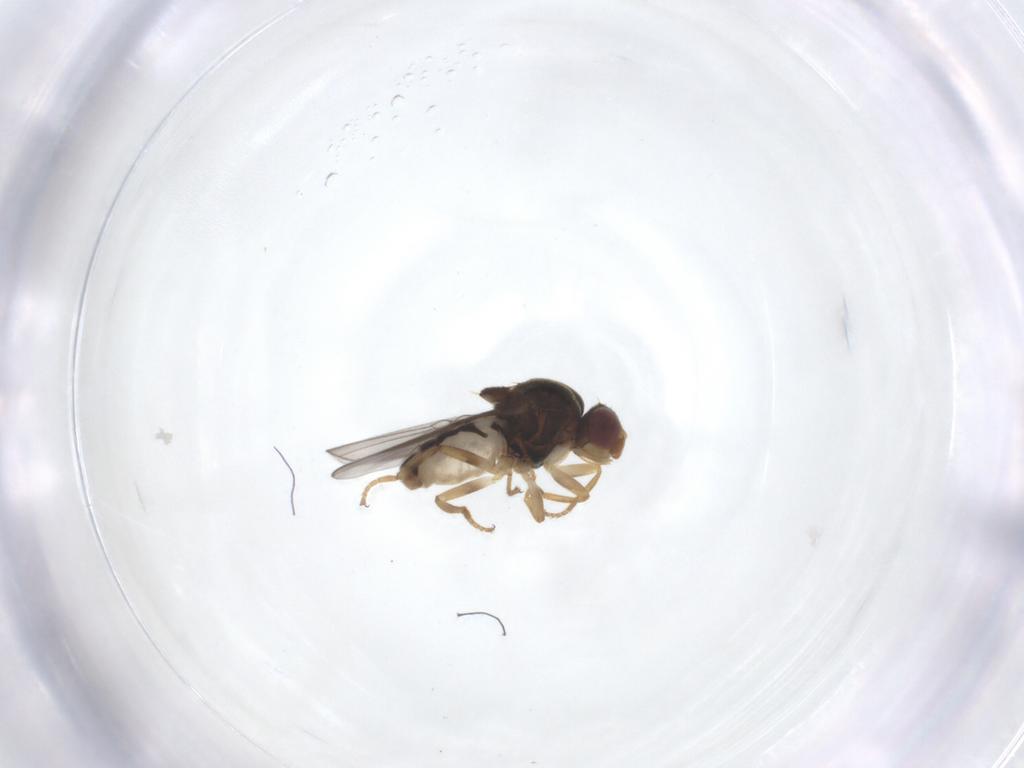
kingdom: Animalia
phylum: Arthropoda
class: Insecta
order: Diptera
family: Chloropidae
